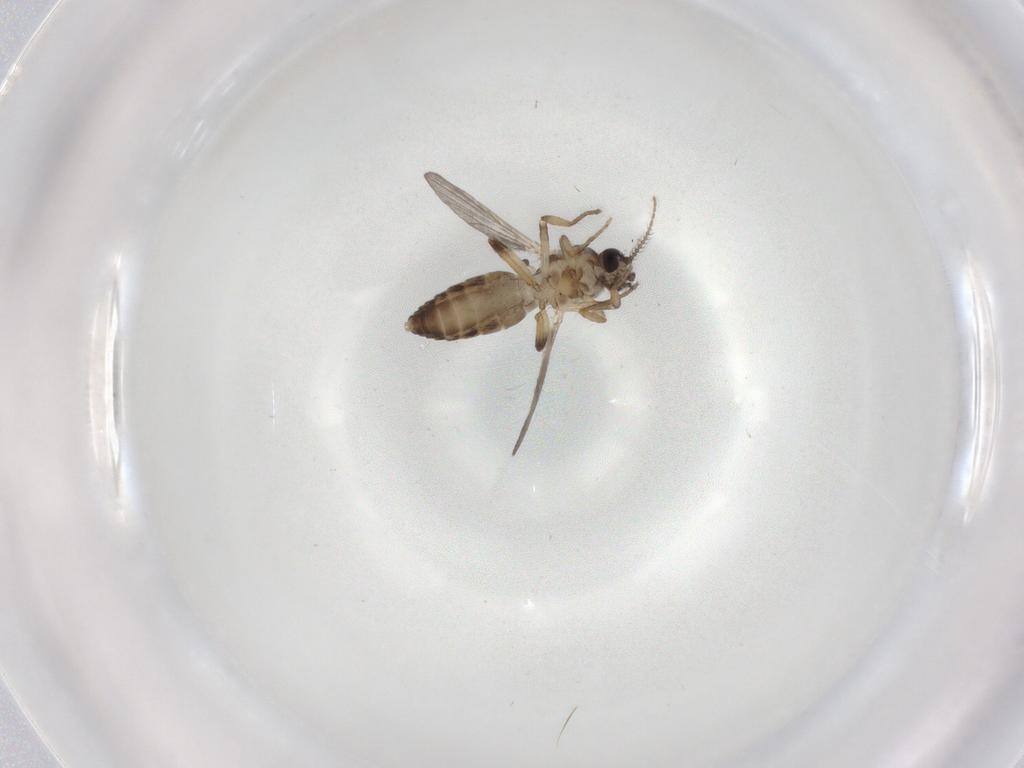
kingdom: Animalia
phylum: Arthropoda
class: Insecta
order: Diptera
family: Ceratopogonidae
